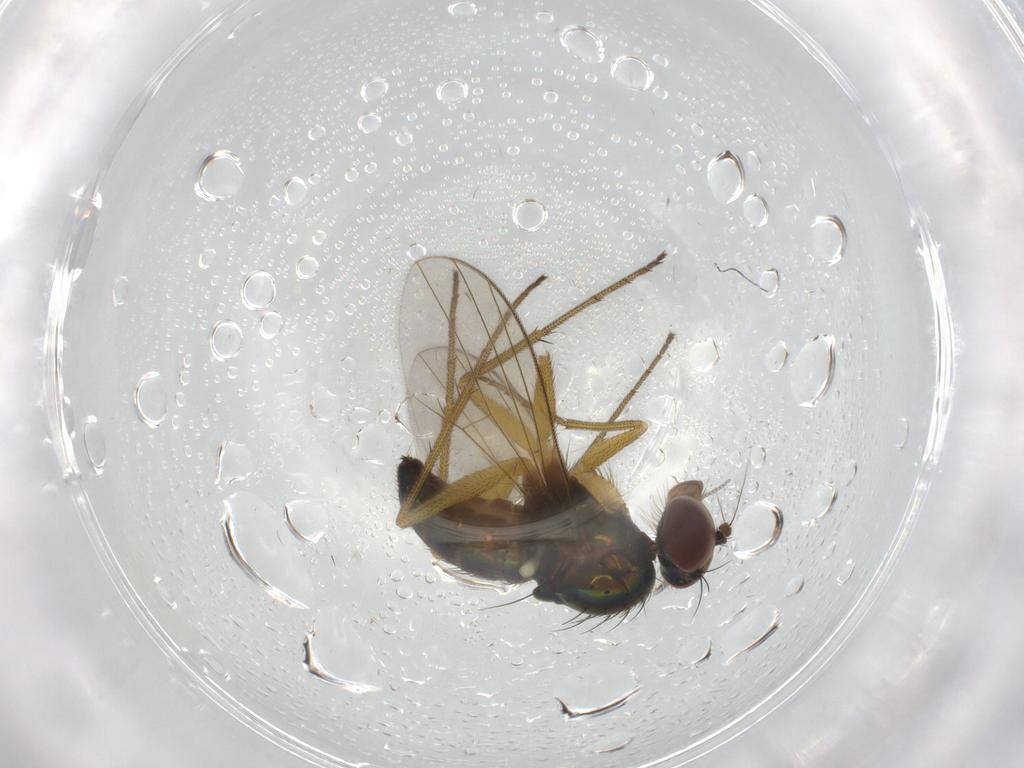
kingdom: Animalia
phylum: Arthropoda
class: Insecta
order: Diptera
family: Dolichopodidae
